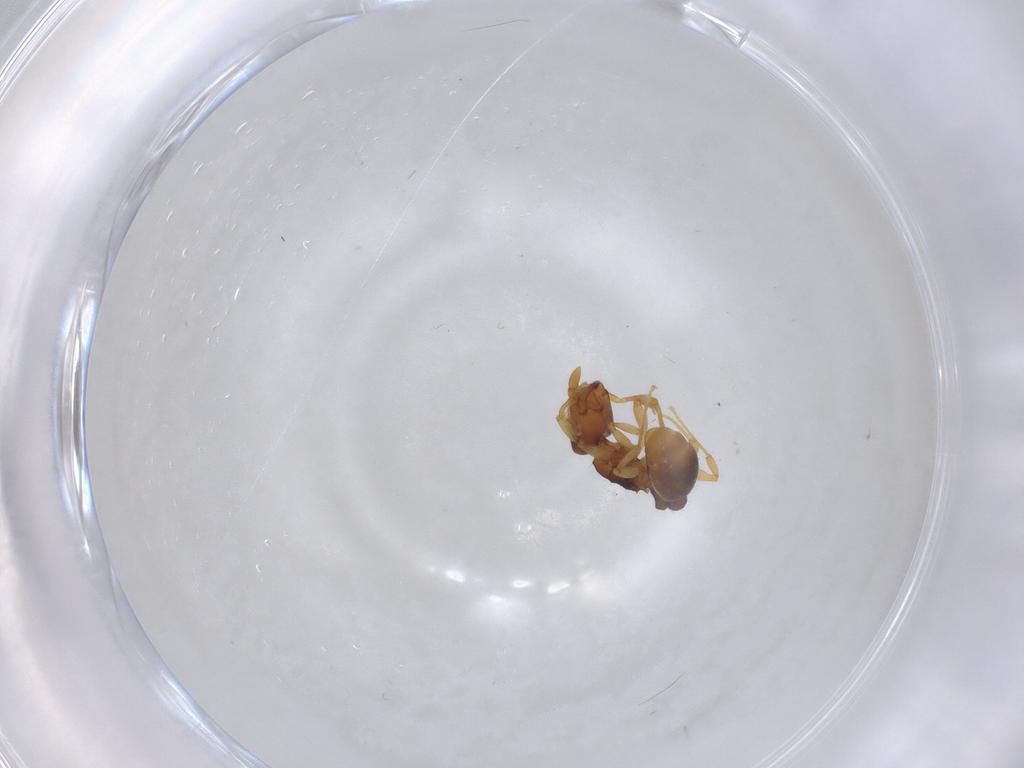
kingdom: Animalia
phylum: Arthropoda
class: Insecta
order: Hymenoptera
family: Formicidae
